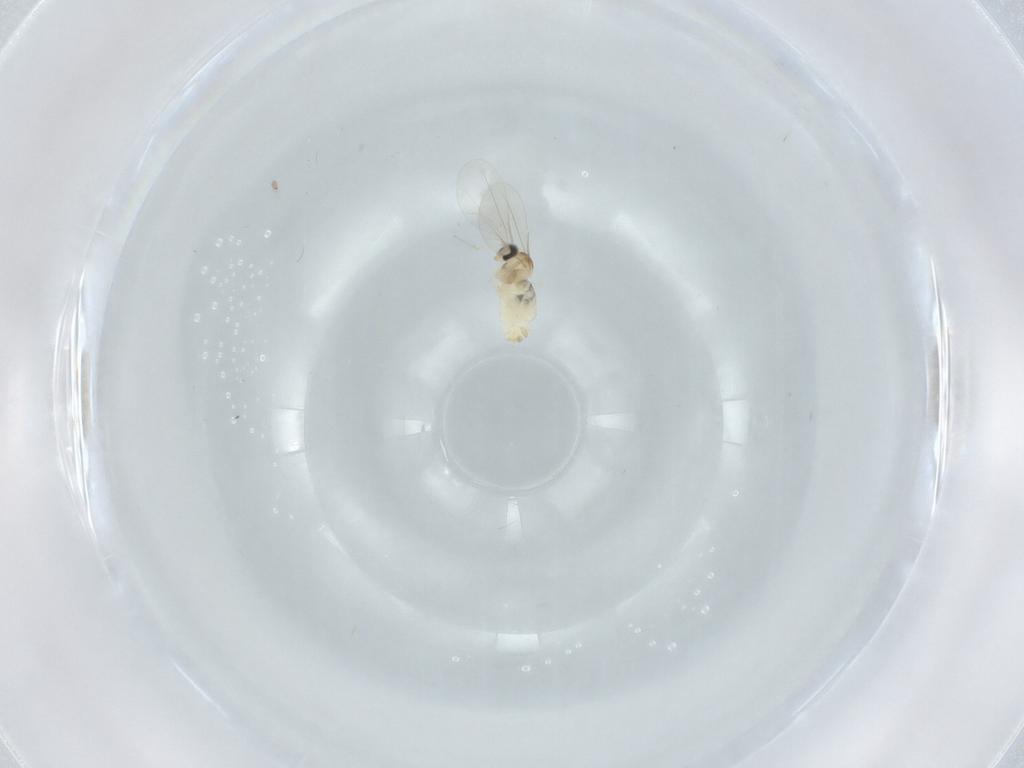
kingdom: Animalia
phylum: Arthropoda
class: Insecta
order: Diptera
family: Cecidomyiidae
